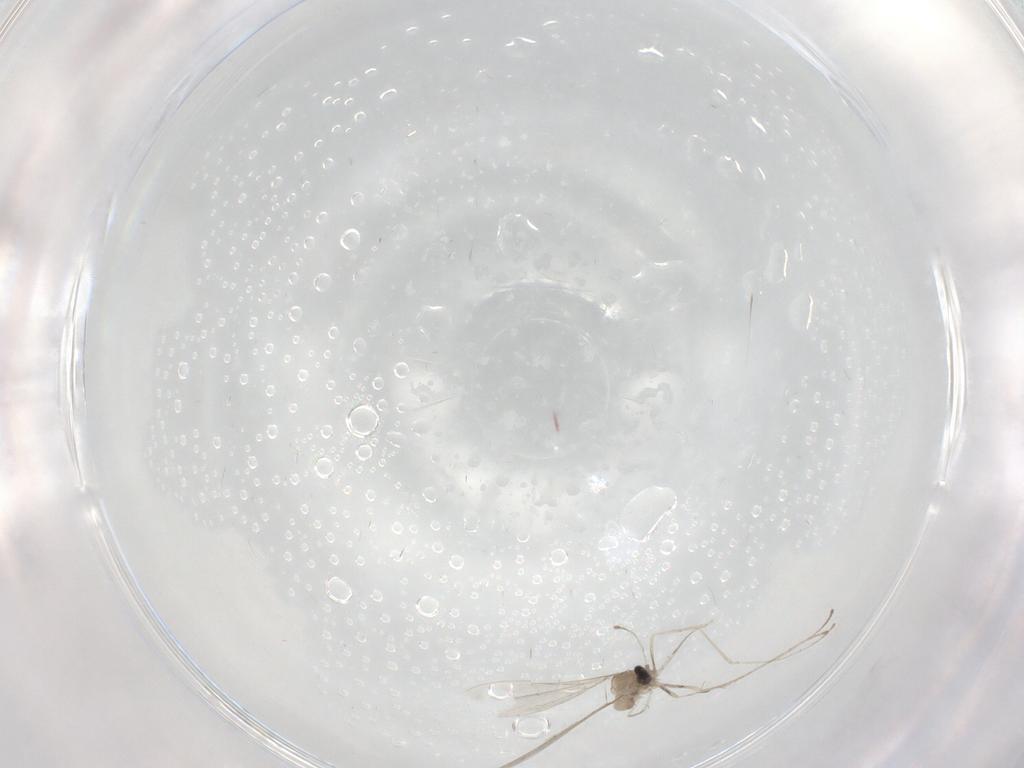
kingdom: Animalia
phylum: Arthropoda
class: Insecta
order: Diptera
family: Phoridae
